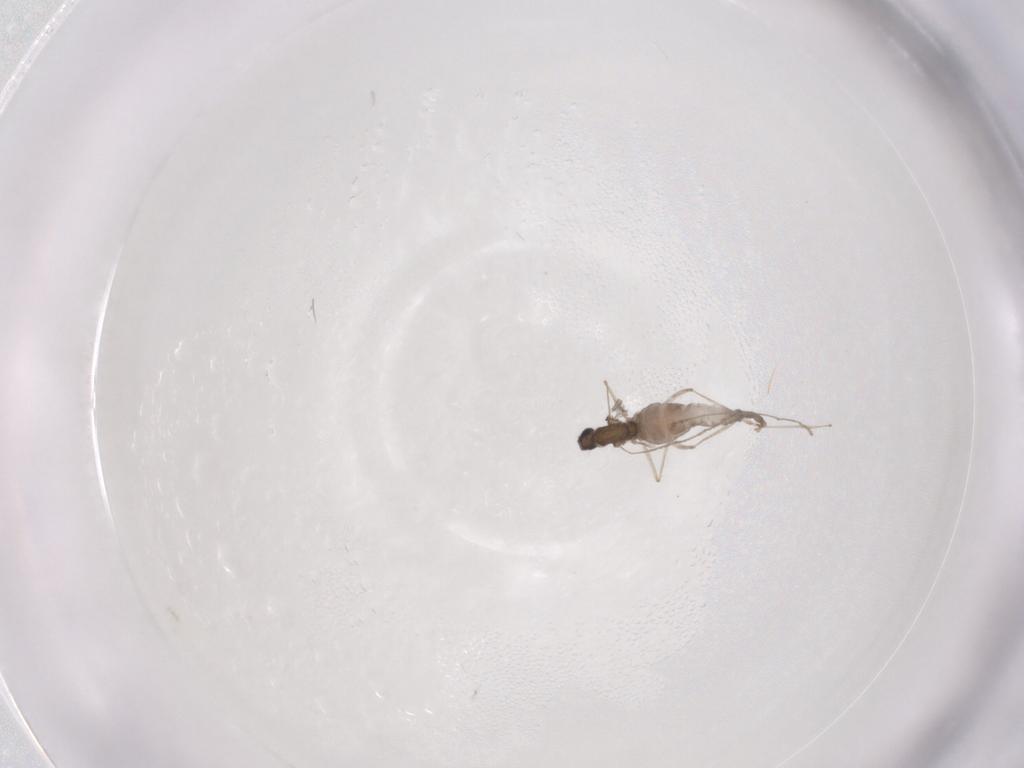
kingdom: Animalia
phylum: Arthropoda
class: Insecta
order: Diptera
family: Cecidomyiidae
